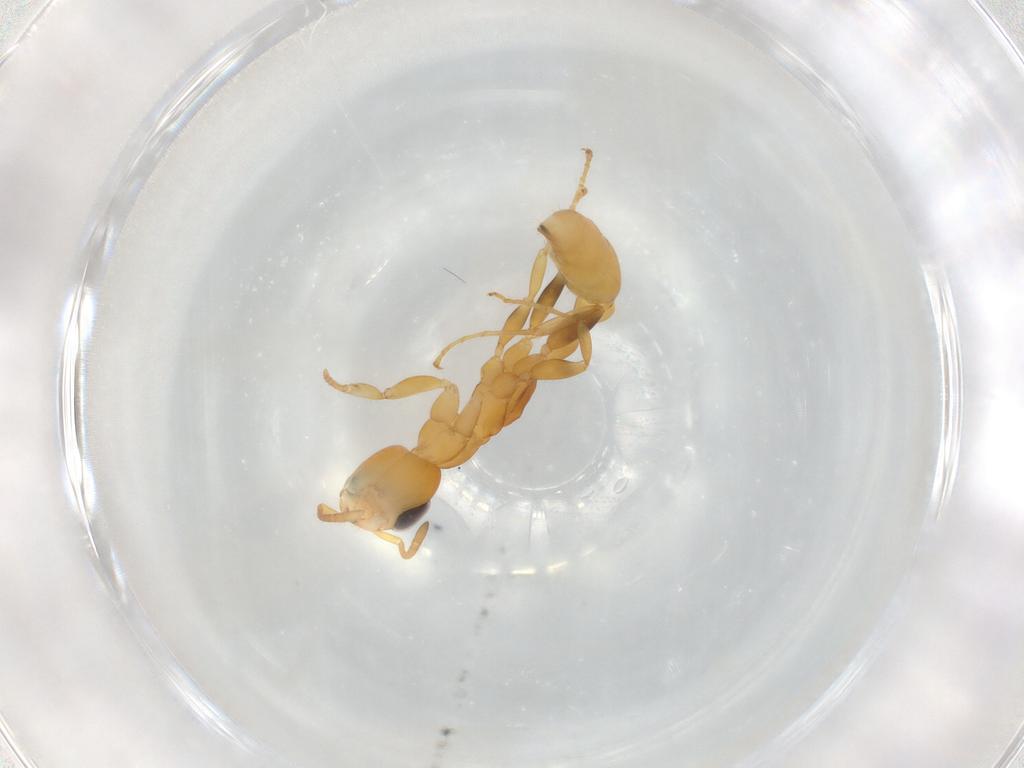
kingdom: Animalia
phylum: Arthropoda
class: Insecta
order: Hymenoptera
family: Formicidae
